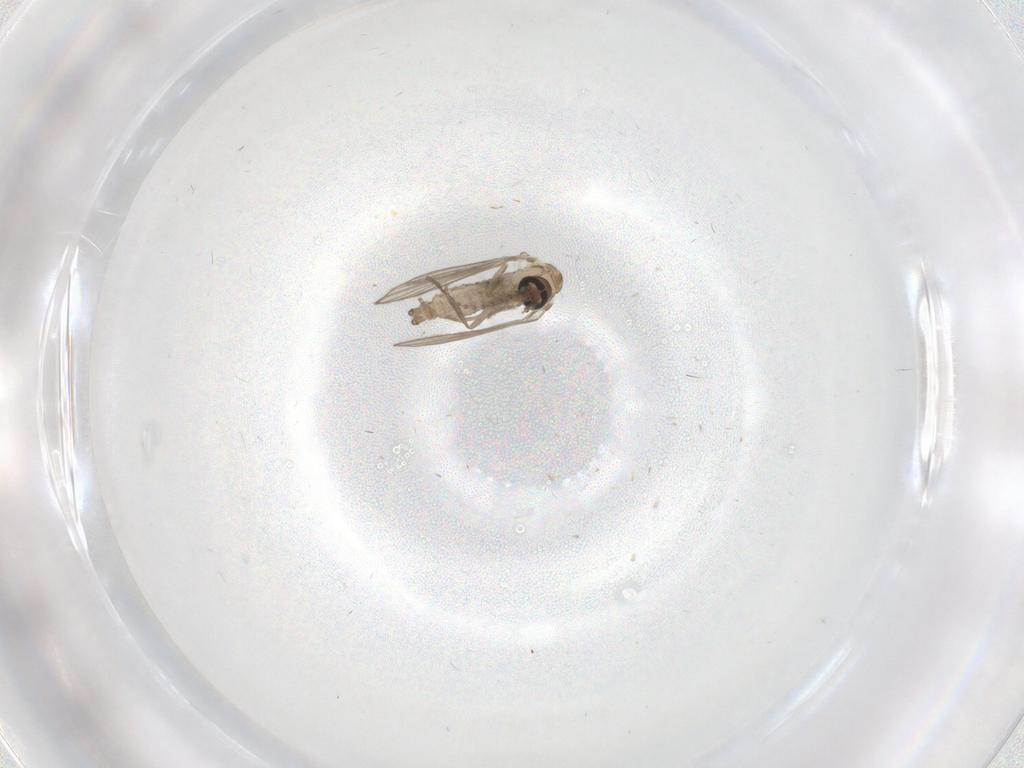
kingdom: Animalia
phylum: Arthropoda
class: Insecta
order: Diptera
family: Psychodidae
